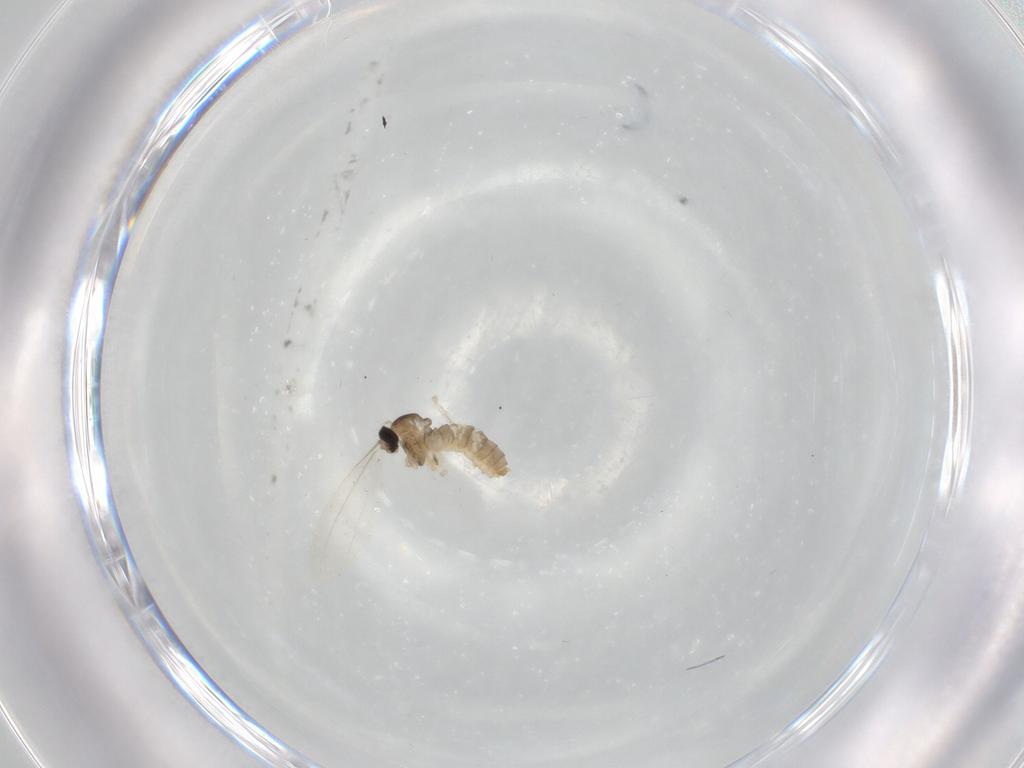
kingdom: Animalia
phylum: Arthropoda
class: Insecta
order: Diptera
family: Cecidomyiidae
